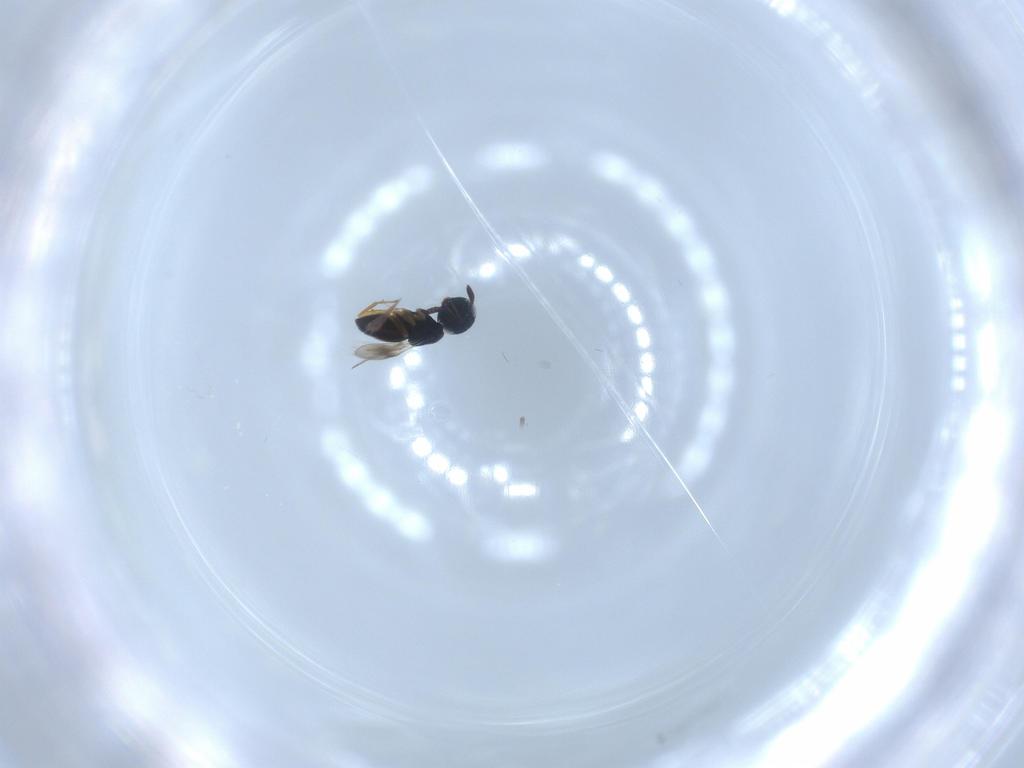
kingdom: Animalia
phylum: Arthropoda
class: Insecta
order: Hymenoptera
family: Scelionidae
